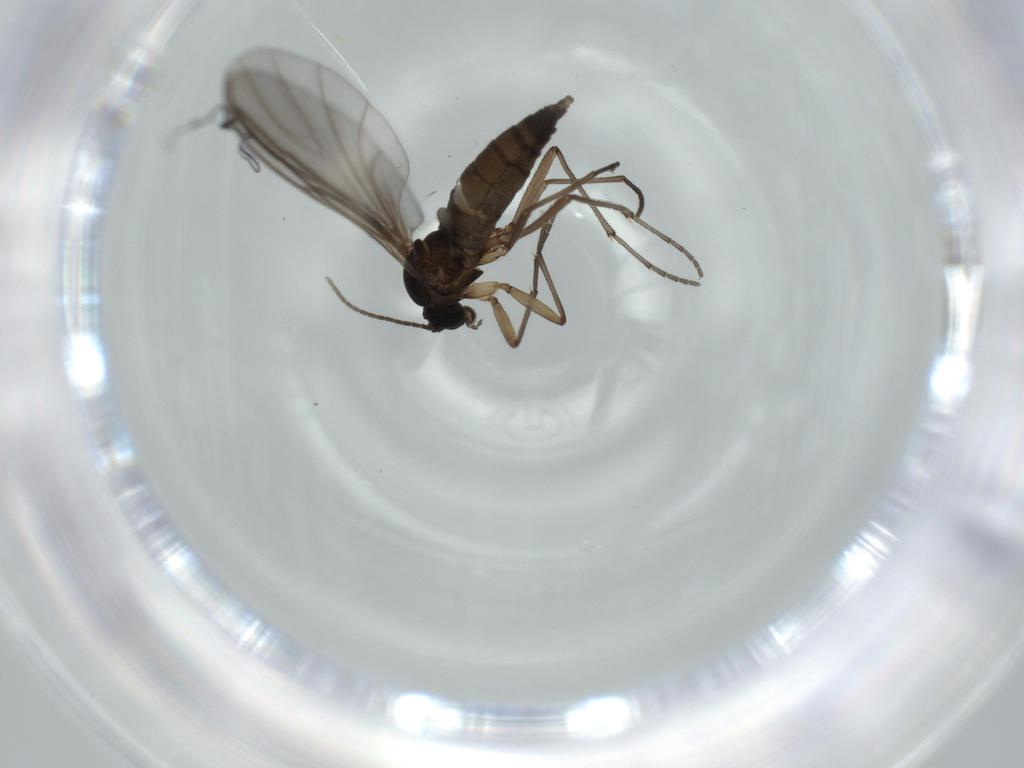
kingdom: Animalia
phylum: Arthropoda
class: Insecta
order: Diptera
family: Sciaridae
